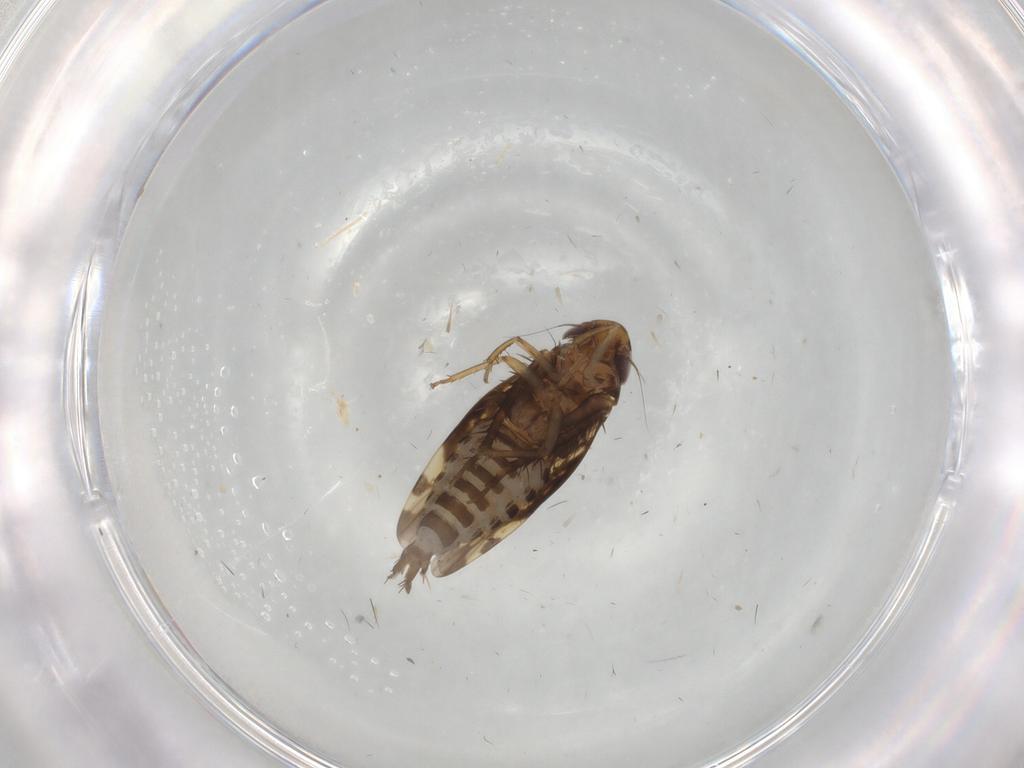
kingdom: Animalia
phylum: Arthropoda
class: Insecta
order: Hemiptera
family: Cicadellidae
